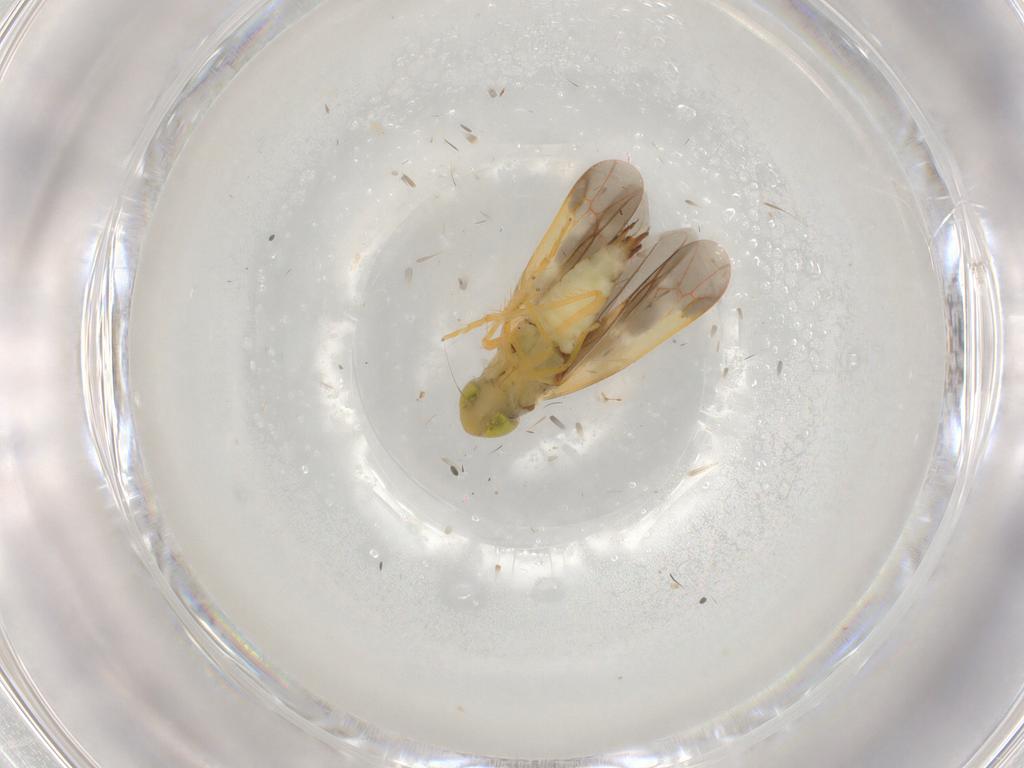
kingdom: Animalia
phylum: Arthropoda
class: Insecta
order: Hemiptera
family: Cicadellidae
